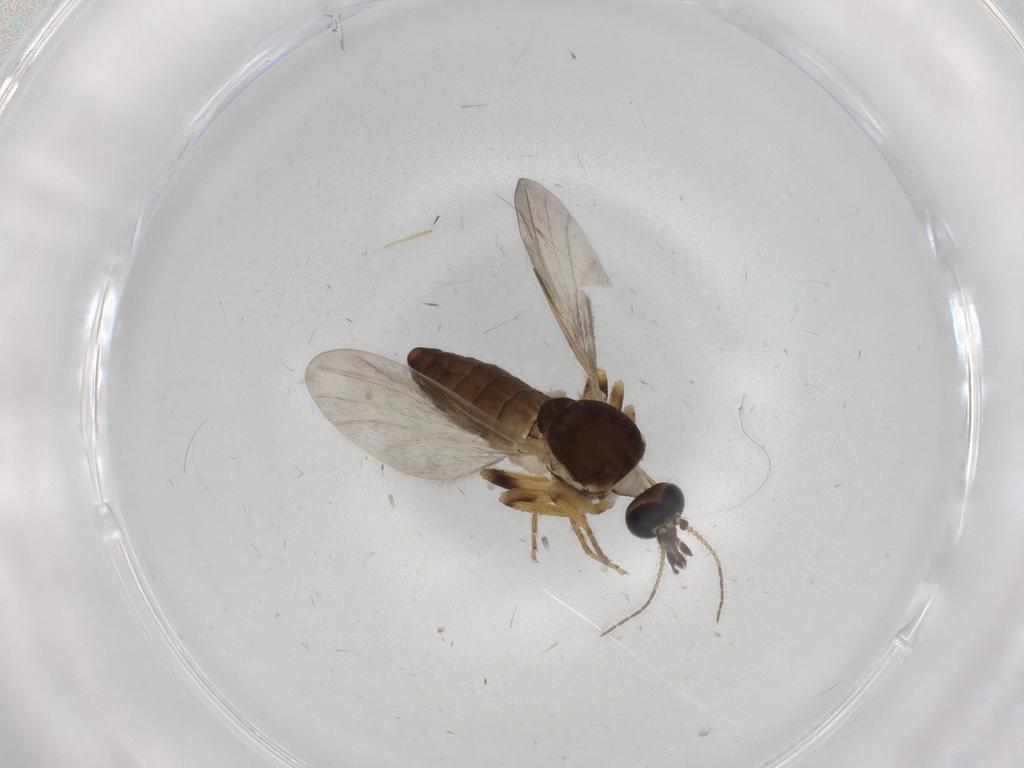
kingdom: Animalia
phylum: Arthropoda
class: Insecta
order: Diptera
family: Ceratopogonidae
